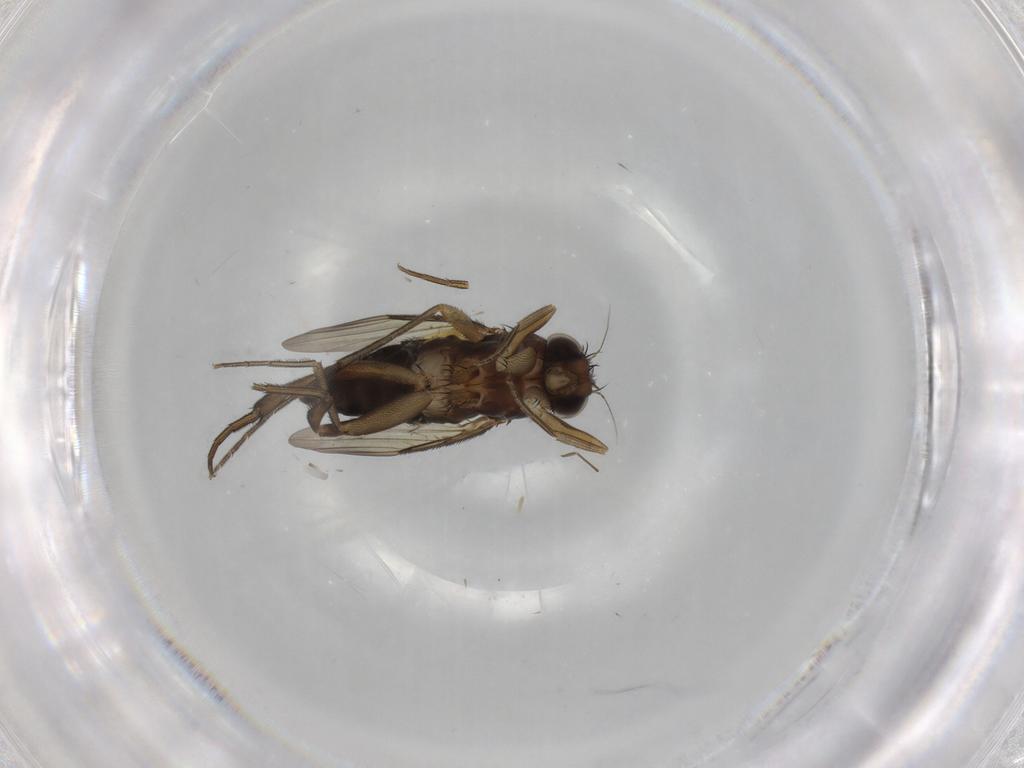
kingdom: Animalia
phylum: Arthropoda
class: Insecta
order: Diptera
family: Phoridae
